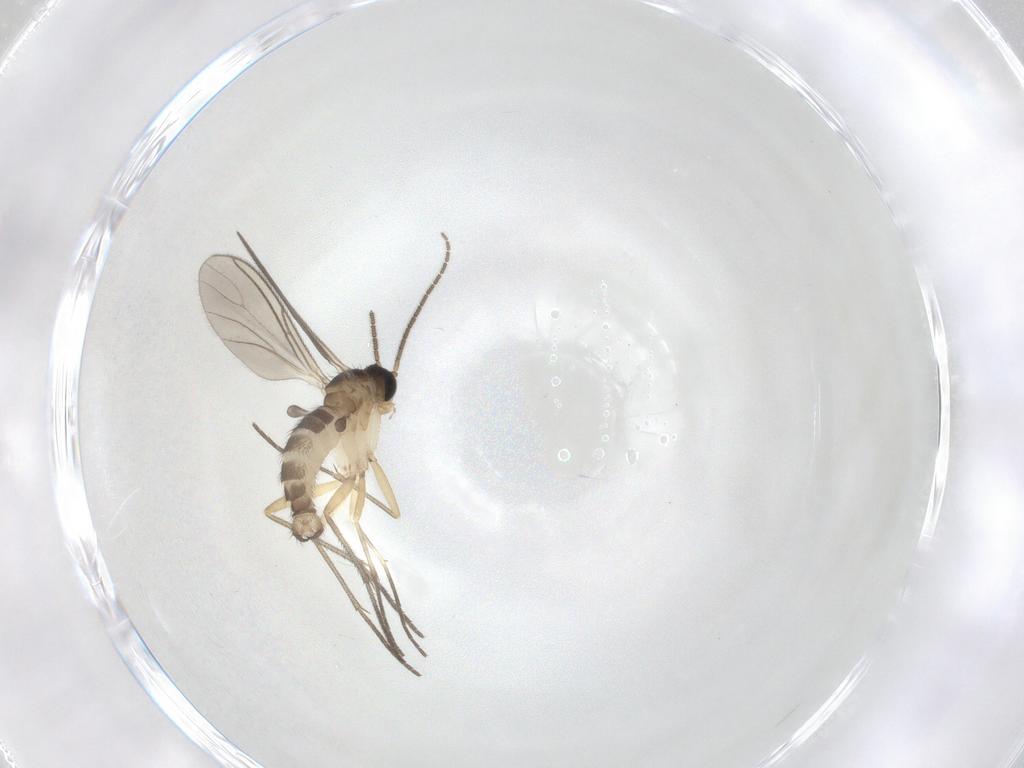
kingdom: Animalia
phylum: Arthropoda
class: Insecta
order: Diptera
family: Sciaridae
